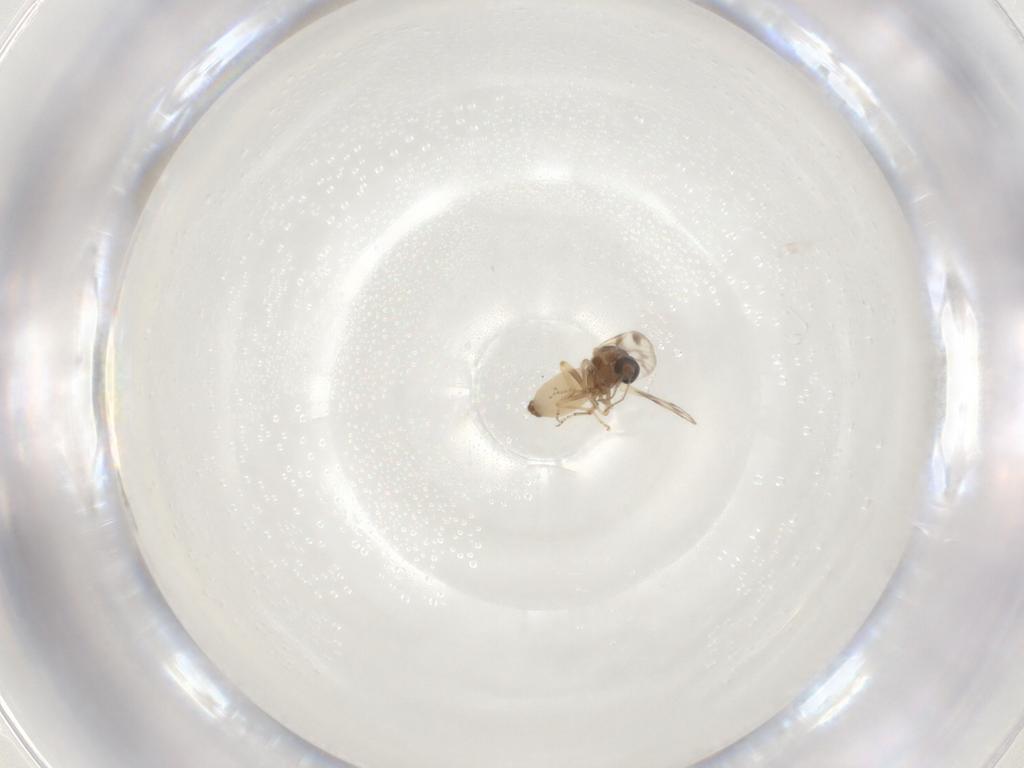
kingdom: Animalia
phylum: Arthropoda
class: Insecta
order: Diptera
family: Ceratopogonidae
